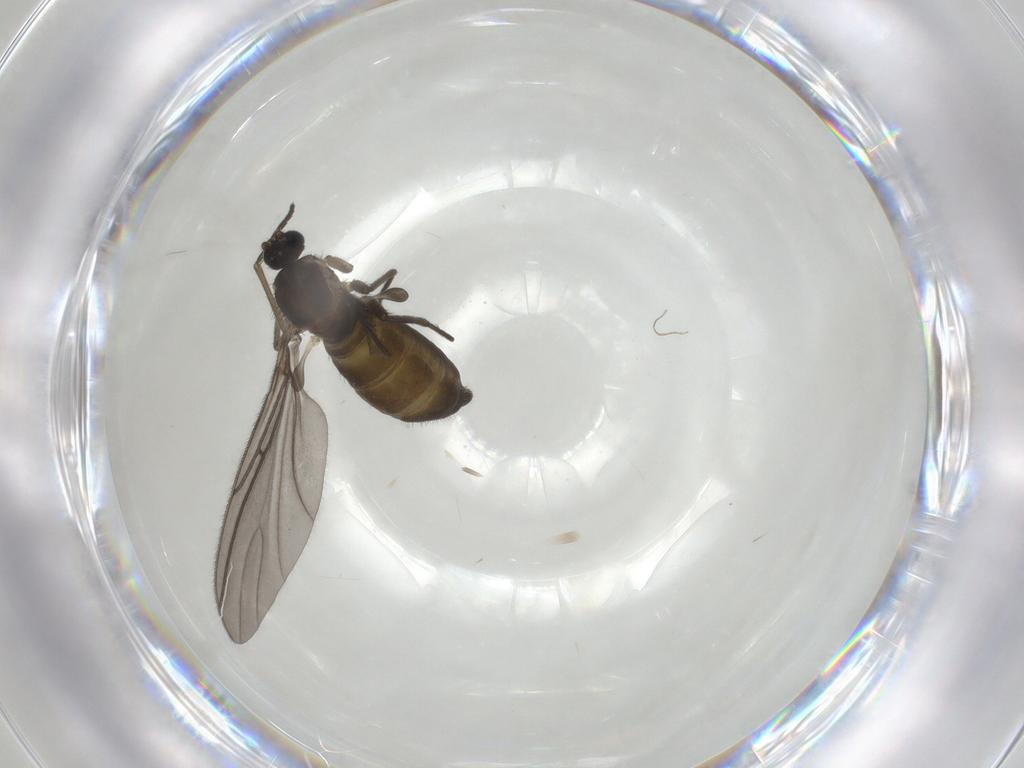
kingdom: Animalia
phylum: Arthropoda
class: Insecta
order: Diptera
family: Sciaridae
